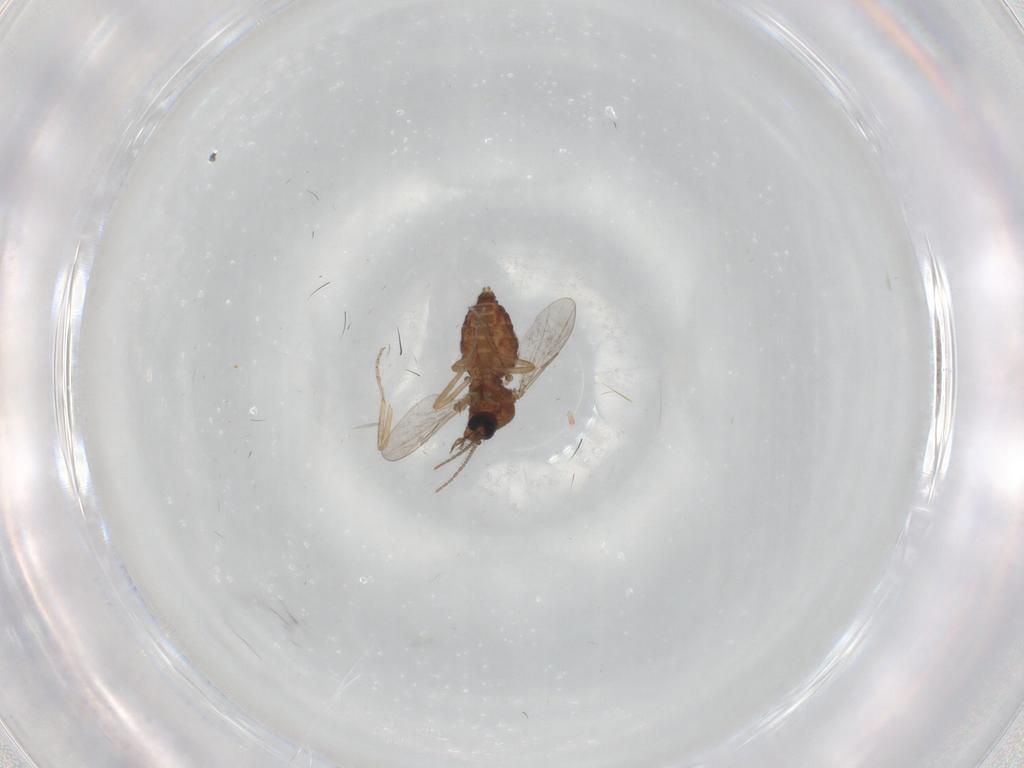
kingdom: Animalia
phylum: Arthropoda
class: Insecta
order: Diptera
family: Ceratopogonidae
